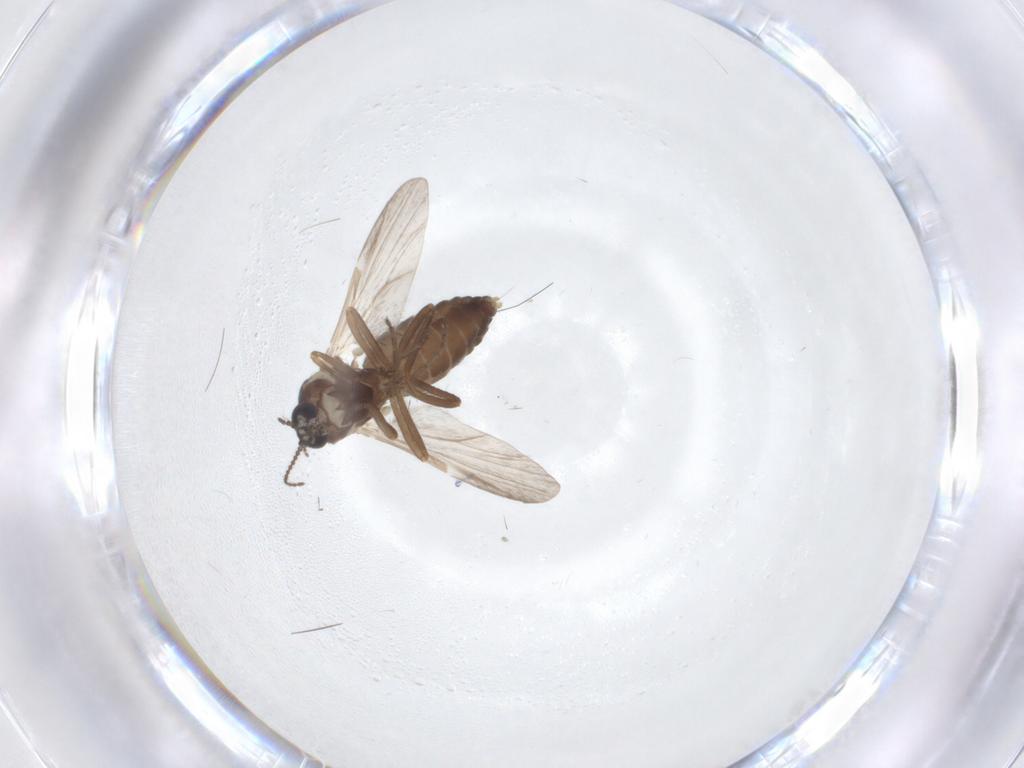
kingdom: Animalia
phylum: Arthropoda
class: Insecta
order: Diptera
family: Ceratopogonidae
